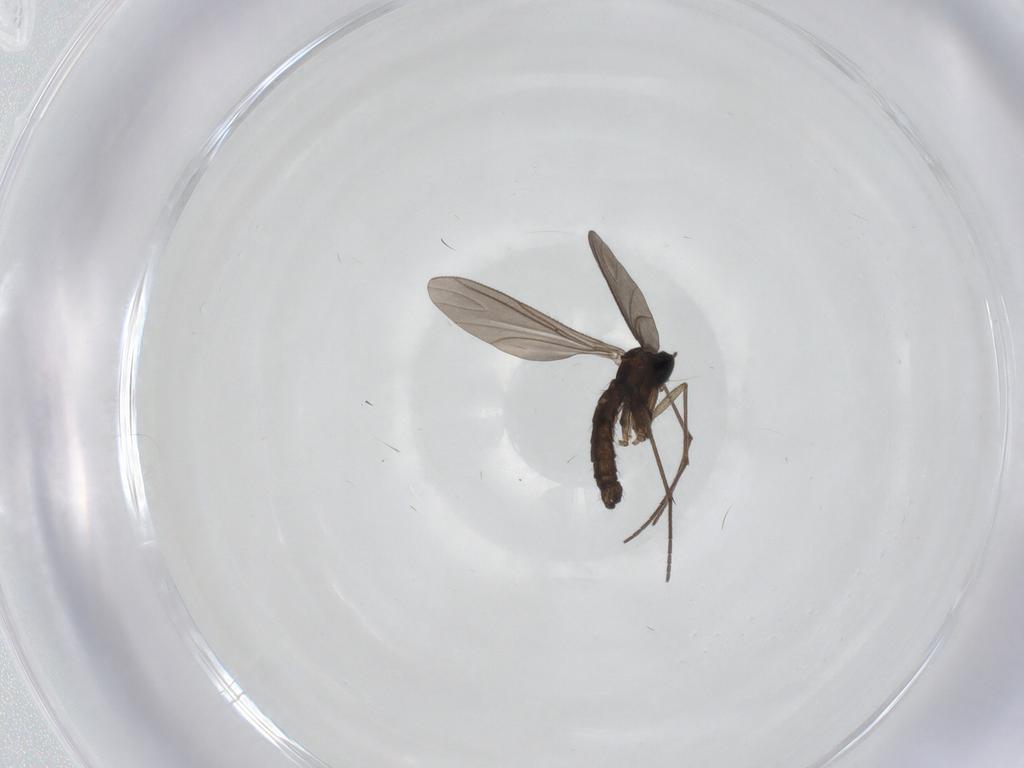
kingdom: Animalia
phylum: Arthropoda
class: Insecta
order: Diptera
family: Sciaridae
